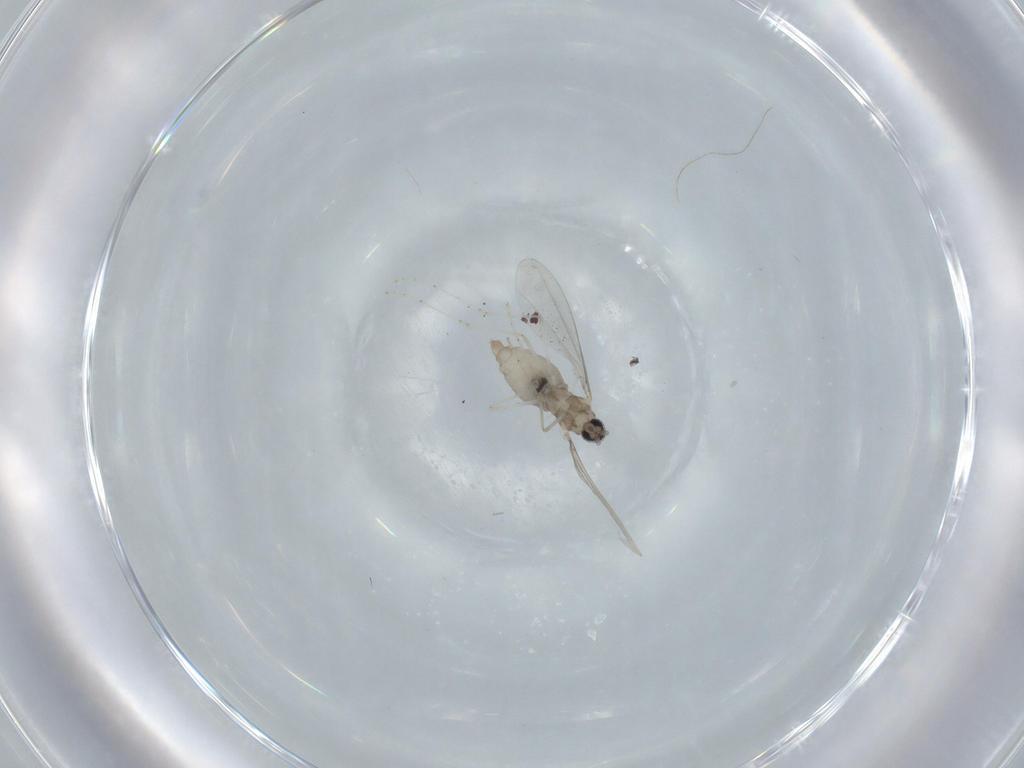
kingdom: Animalia
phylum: Arthropoda
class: Insecta
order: Diptera
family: Cecidomyiidae
